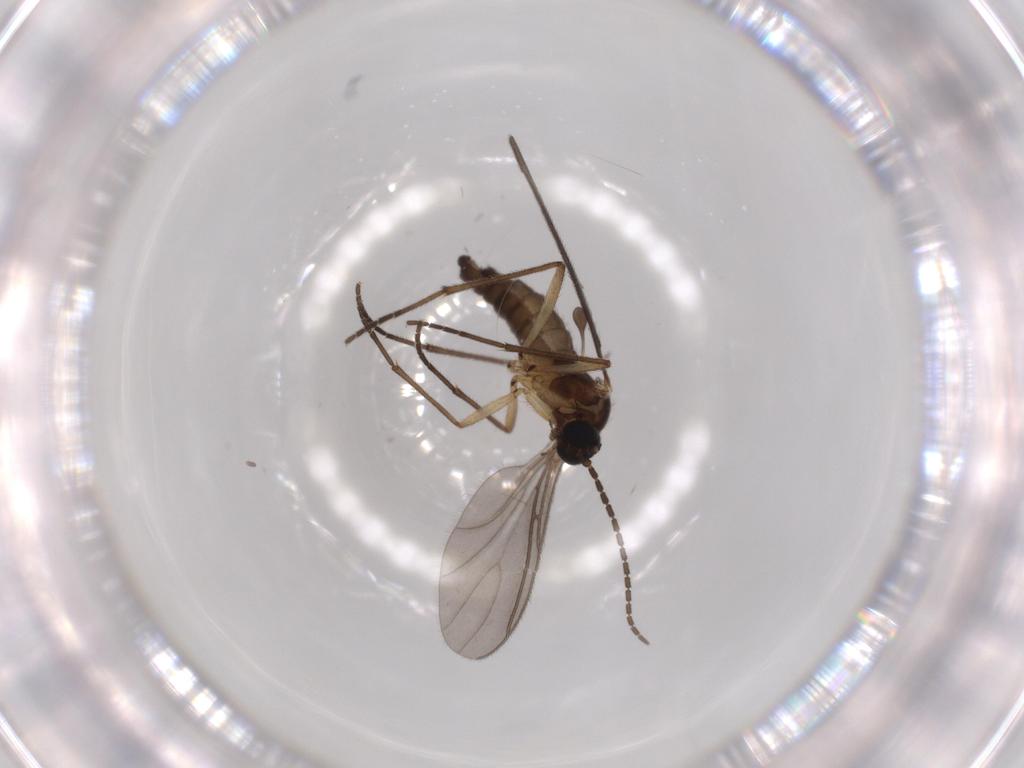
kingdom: Animalia
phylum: Arthropoda
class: Insecta
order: Diptera
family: Sciaridae
